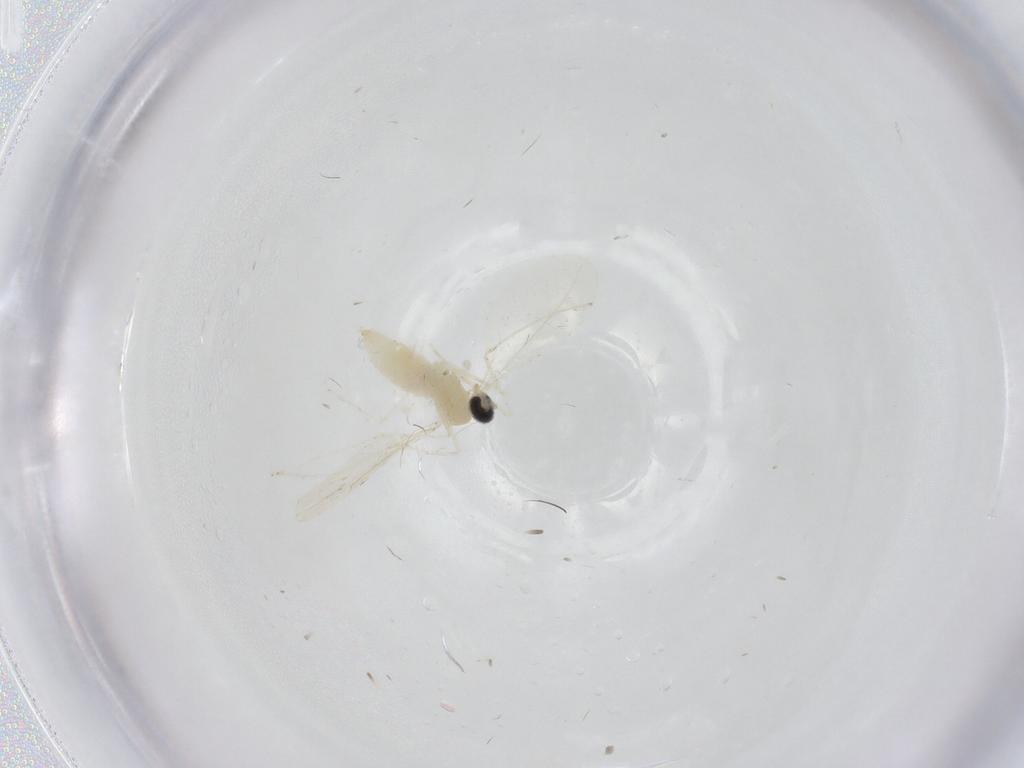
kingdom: Animalia
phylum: Arthropoda
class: Insecta
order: Diptera
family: Cecidomyiidae
